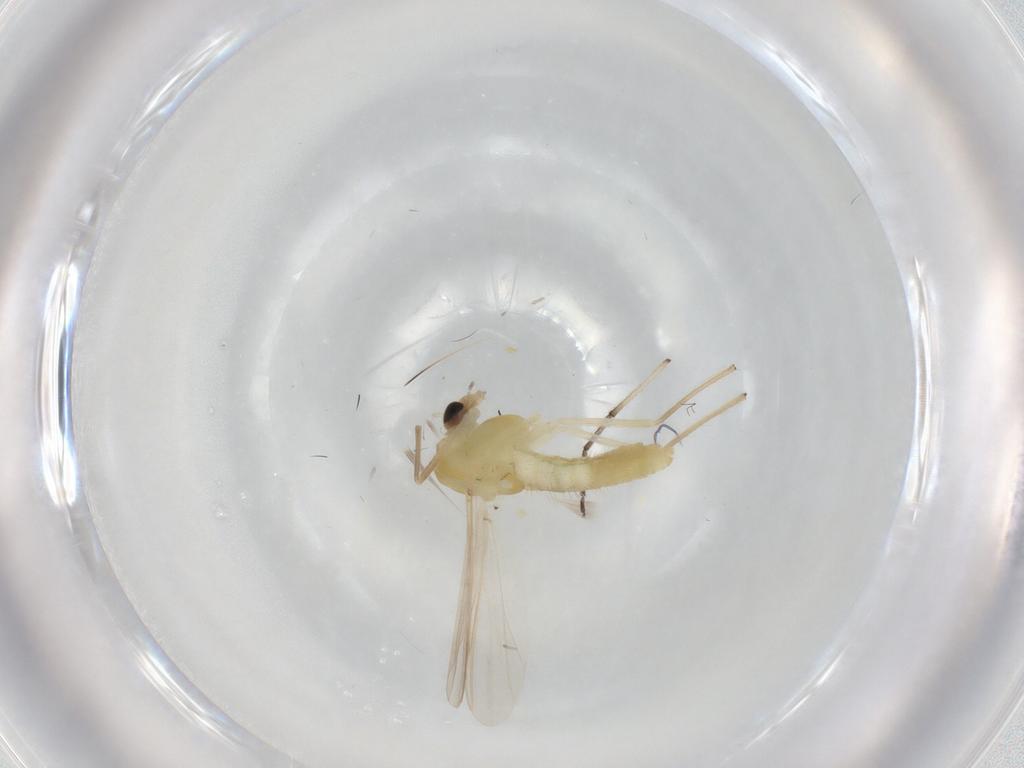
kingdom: Animalia
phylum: Arthropoda
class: Insecta
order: Diptera
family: Chironomidae
